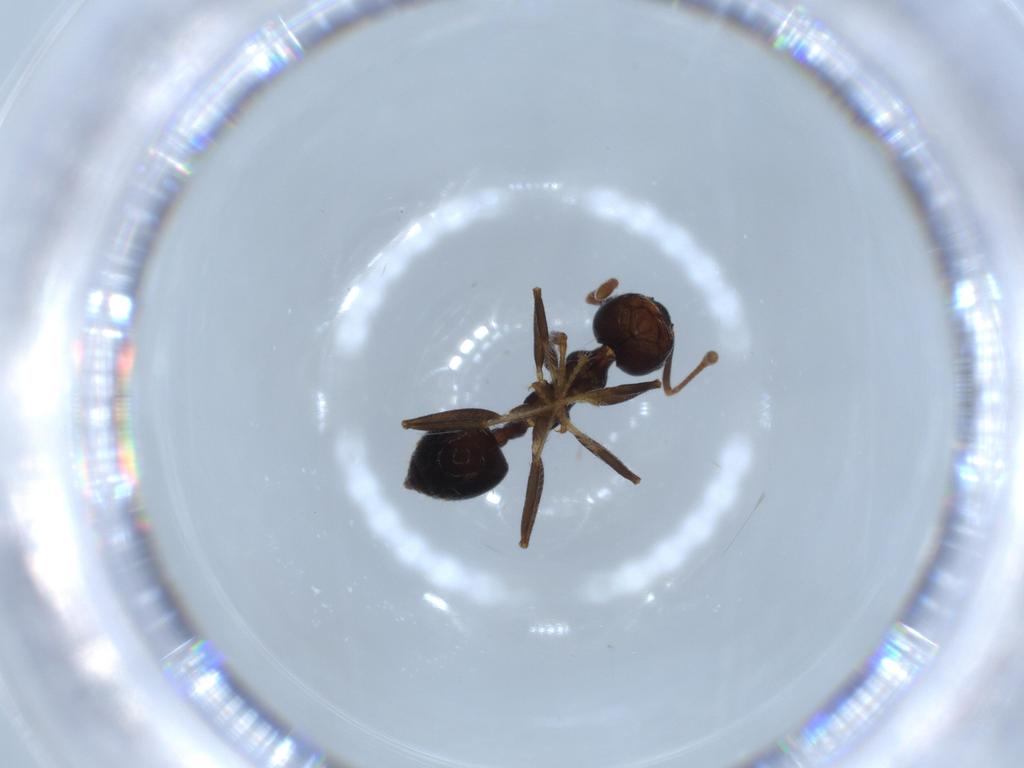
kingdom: Animalia
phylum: Arthropoda
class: Insecta
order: Hymenoptera
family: Formicidae
